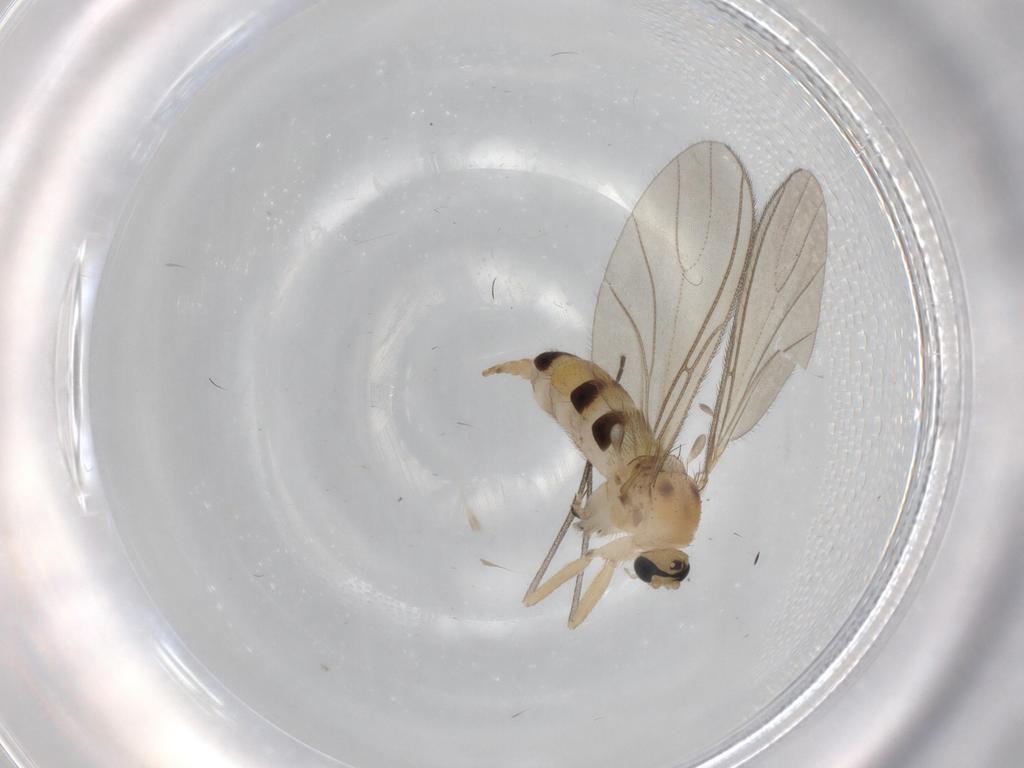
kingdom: Animalia
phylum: Arthropoda
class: Insecta
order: Diptera
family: Sciaridae
